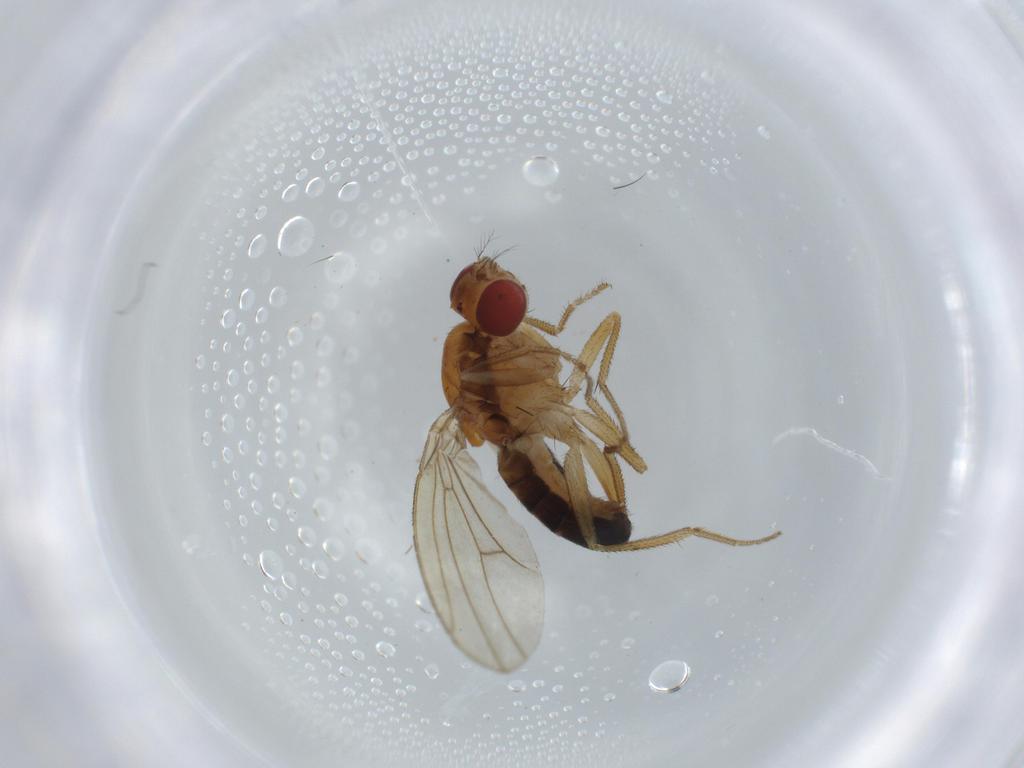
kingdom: Animalia
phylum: Arthropoda
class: Insecta
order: Diptera
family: Drosophilidae
